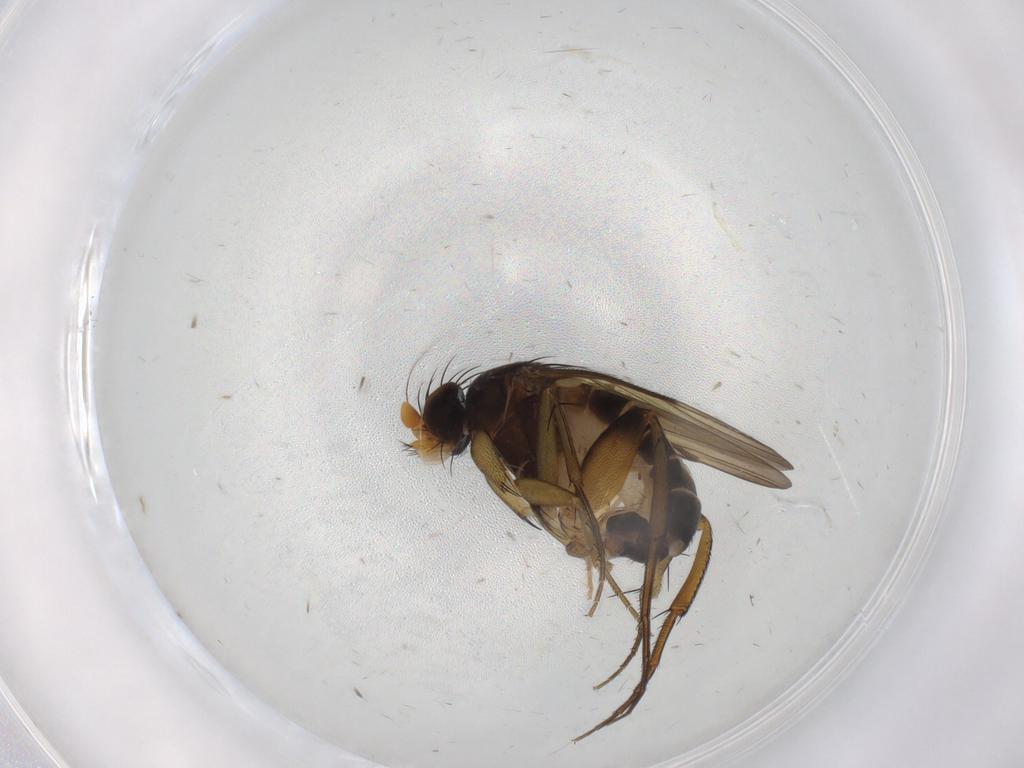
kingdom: Animalia
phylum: Arthropoda
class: Insecta
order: Diptera
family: Phoridae
